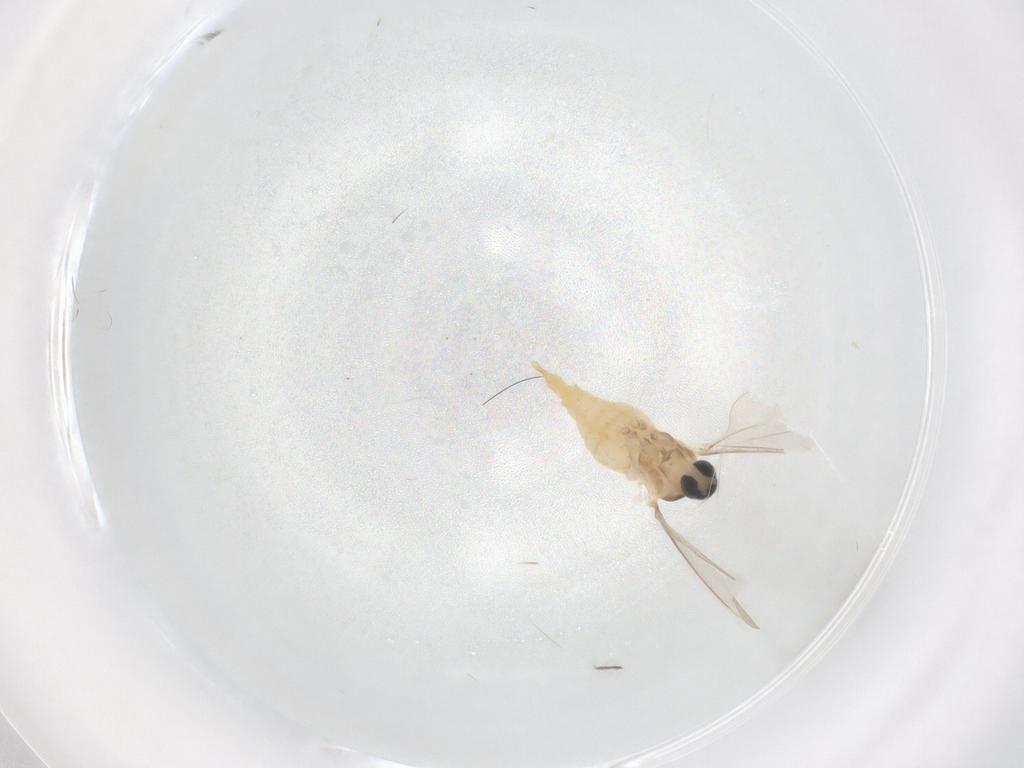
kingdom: Animalia
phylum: Arthropoda
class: Insecta
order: Diptera
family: Cecidomyiidae
